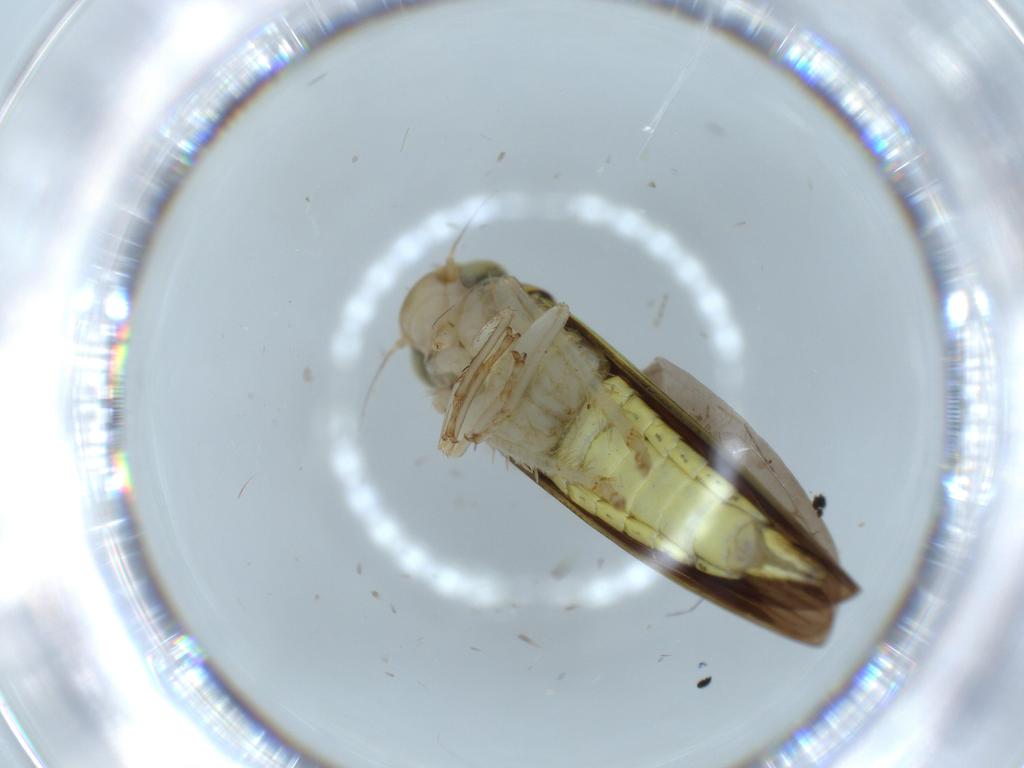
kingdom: Animalia
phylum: Arthropoda
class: Insecta
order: Hemiptera
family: Cicadellidae
